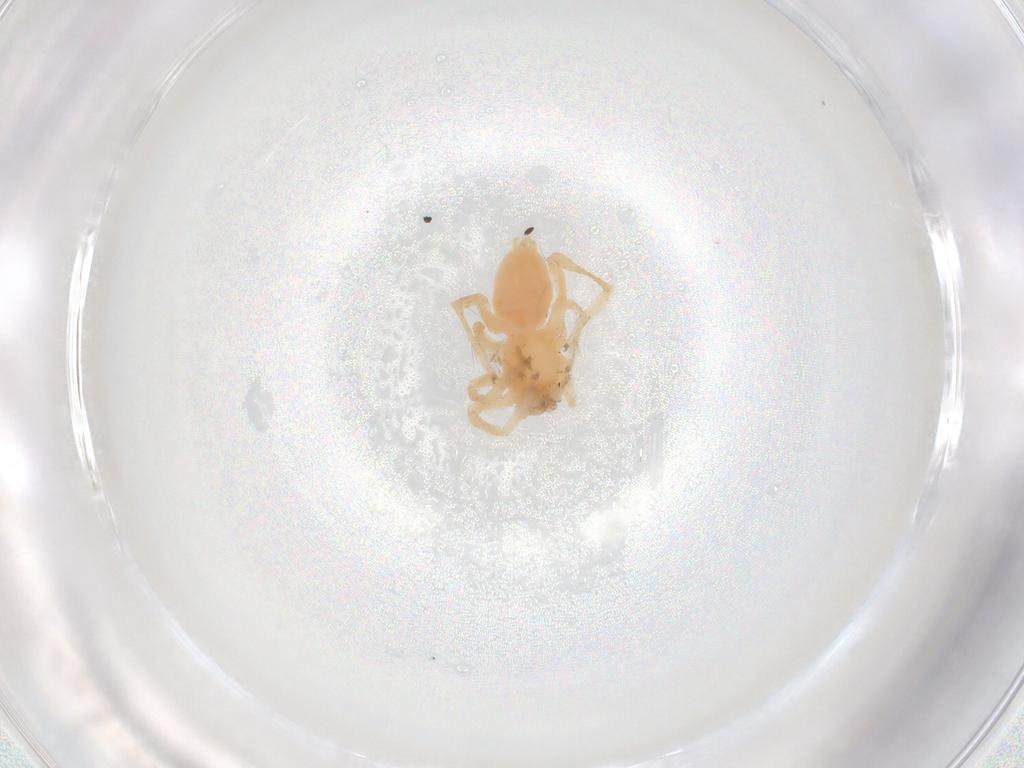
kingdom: Animalia
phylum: Arthropoda
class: Arachnida
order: Araneae
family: Anyphaenidae
